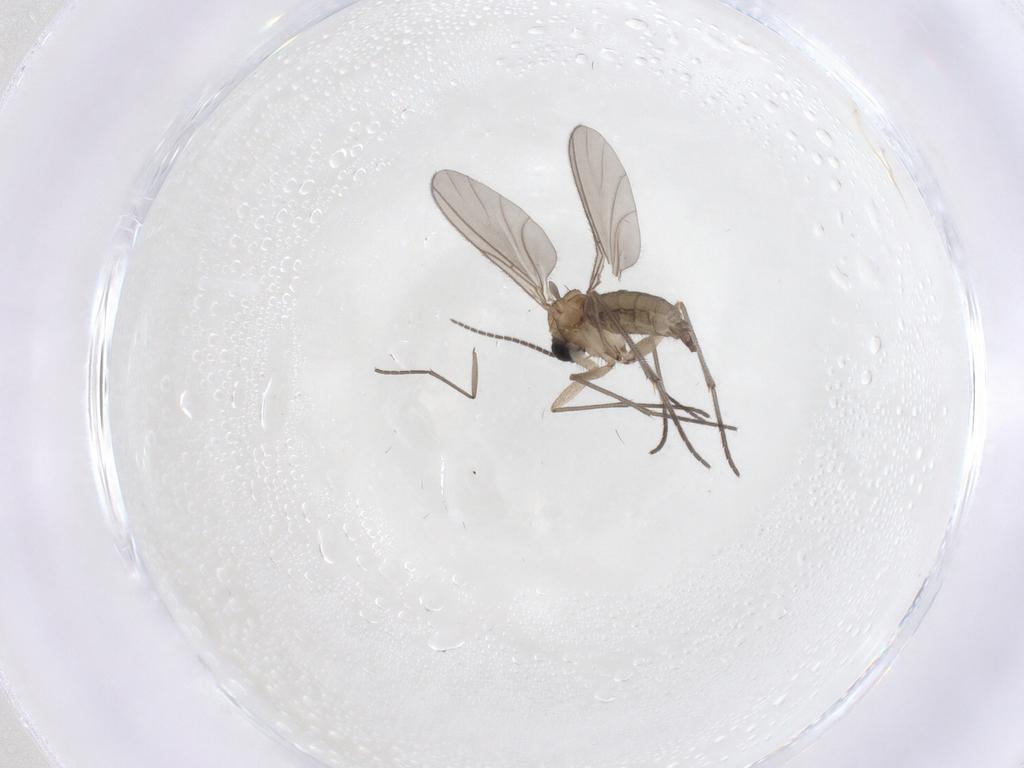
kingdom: Animalia
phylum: Arthropoda
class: Insecta
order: Diptera
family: Sciaridae
